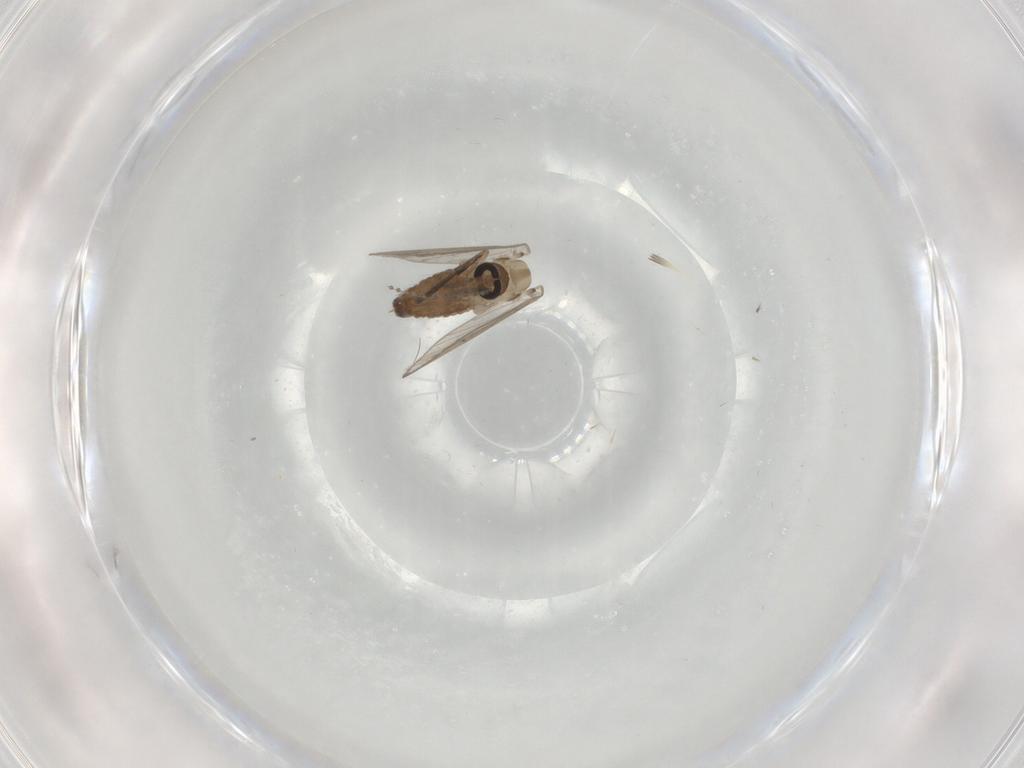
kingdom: Animalia
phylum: Arthropoda
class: Insecta
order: Diptera
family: Psychodidae
